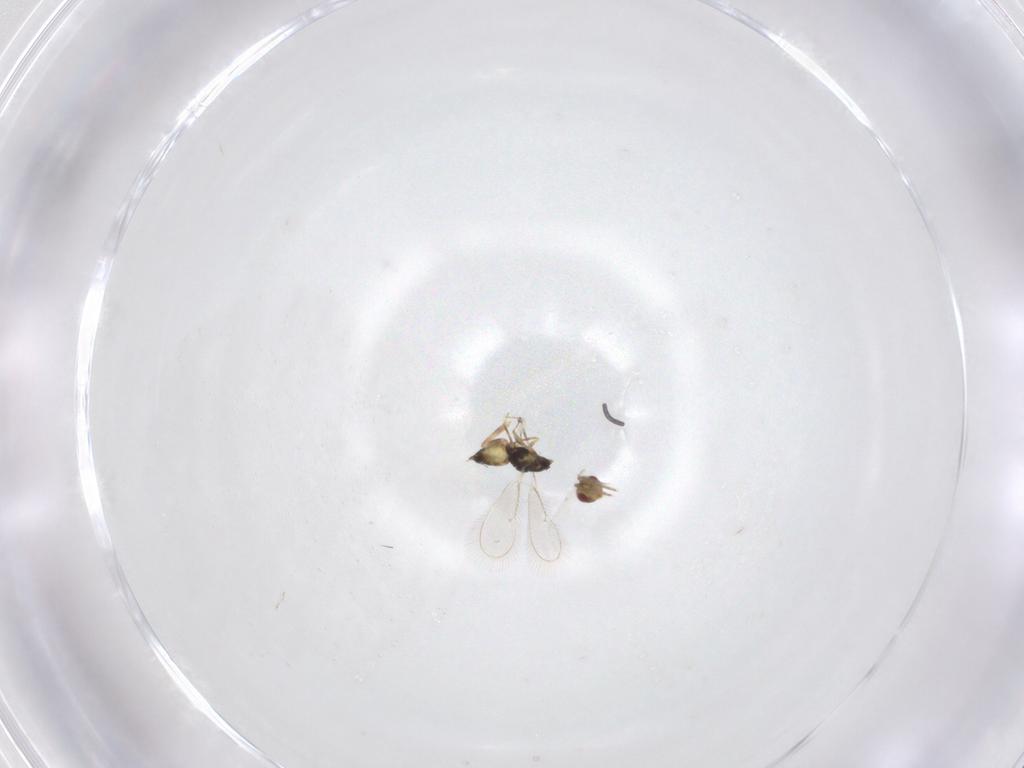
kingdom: Animalia
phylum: Arthropoda
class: Insecta
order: Hymenoptera
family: Eulophidae
